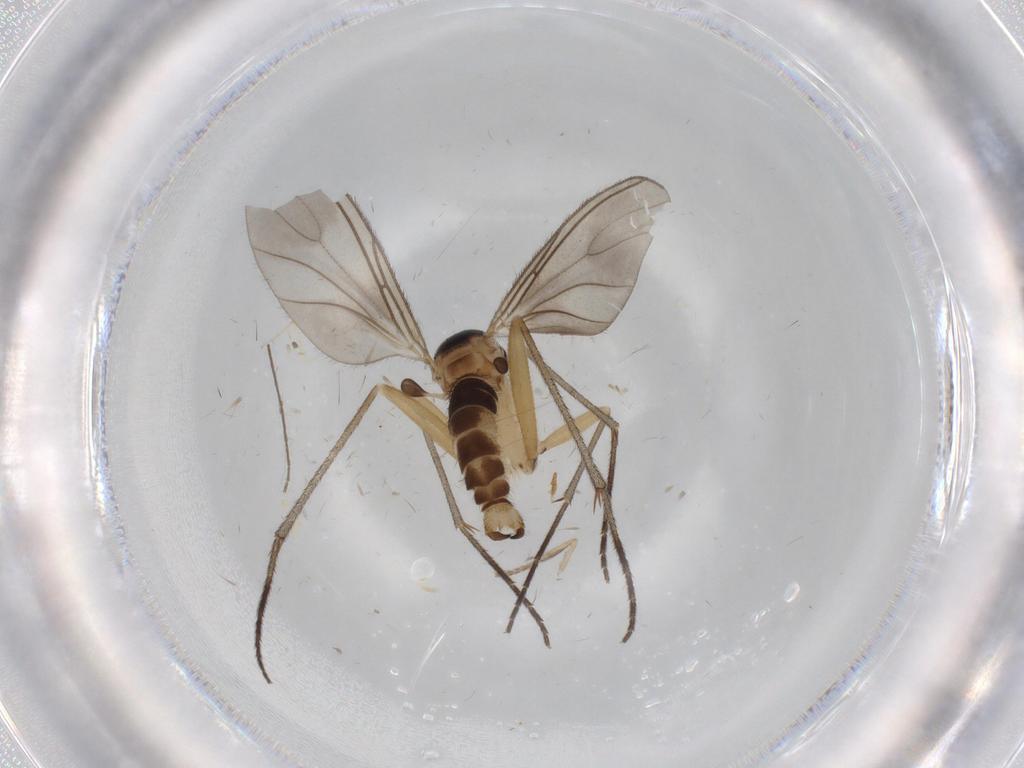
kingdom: Animalia
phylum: Arthropoda
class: Insecta
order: Diptera
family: Sciaridae
